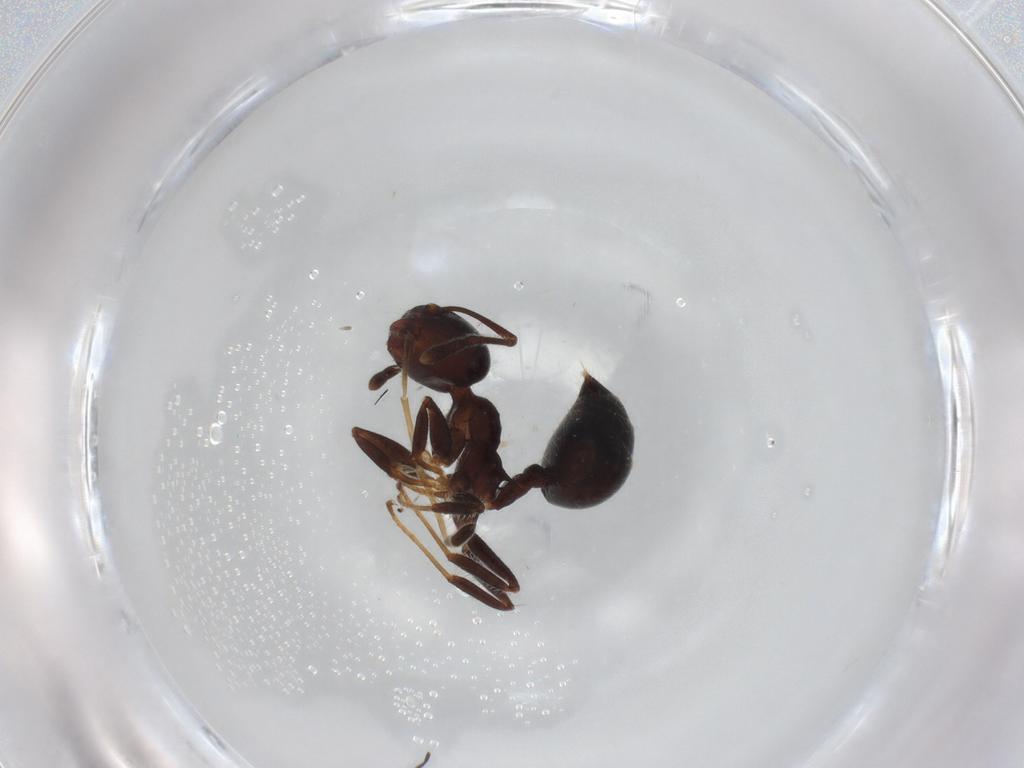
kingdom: Animalia
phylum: Arthropoda
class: Insecta
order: Hymenoptera
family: Pompilidae
